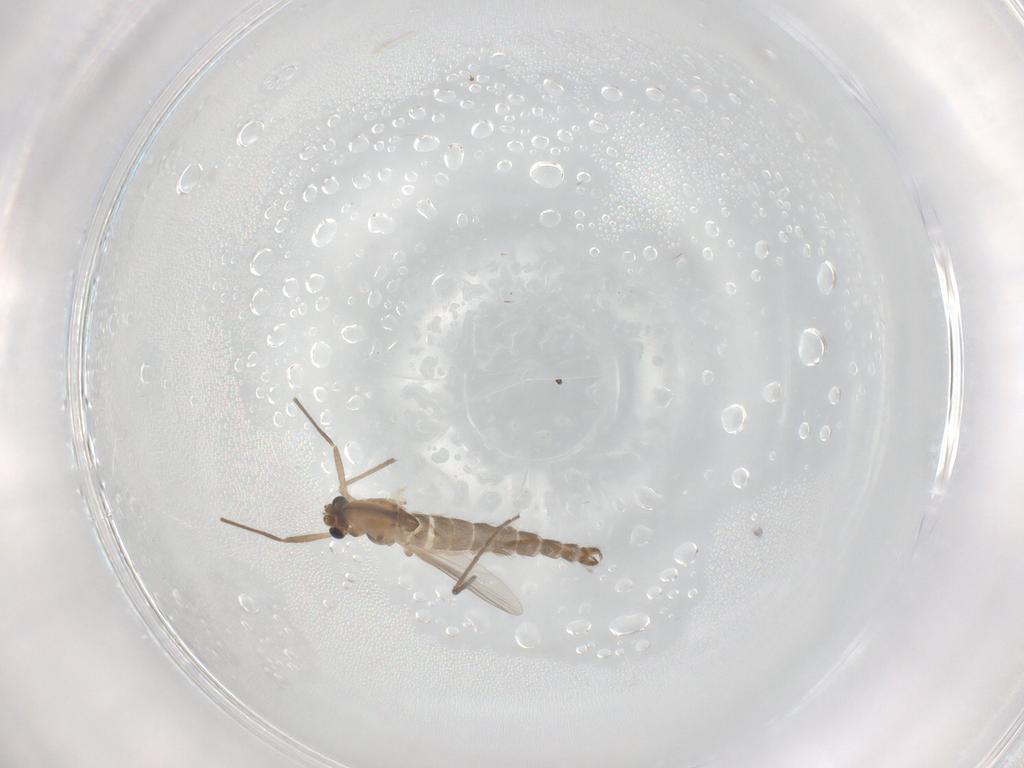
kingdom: Animalia
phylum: Arthropoda
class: Insecta
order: Diptera
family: Chironomidae
